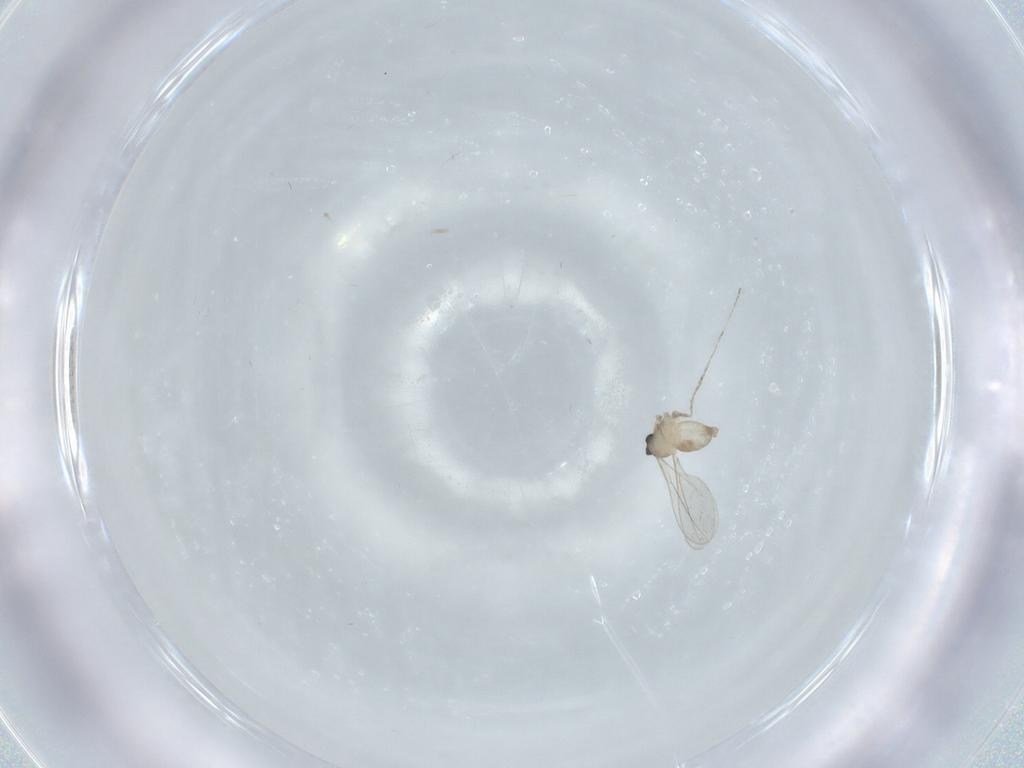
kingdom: Animalia
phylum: Arthropoda
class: Insecta
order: Diptera
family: Cecidomyiidae
